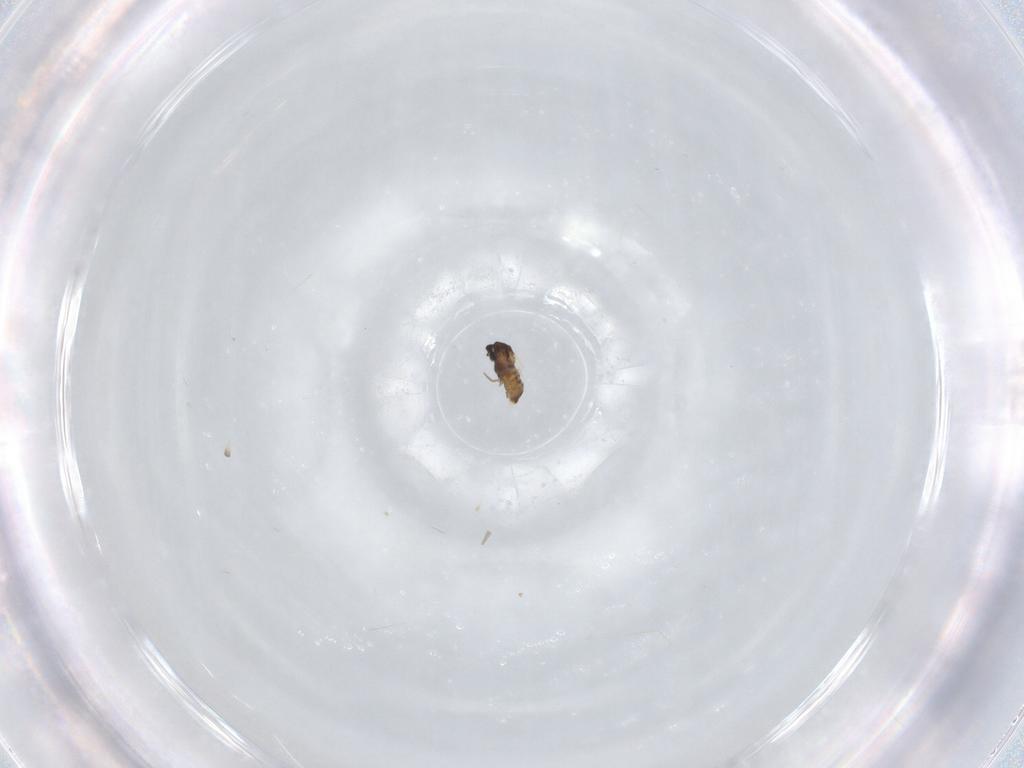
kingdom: Animalia
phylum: Arthropoda
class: Insecta
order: Diptera
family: Cecidomyiidae
